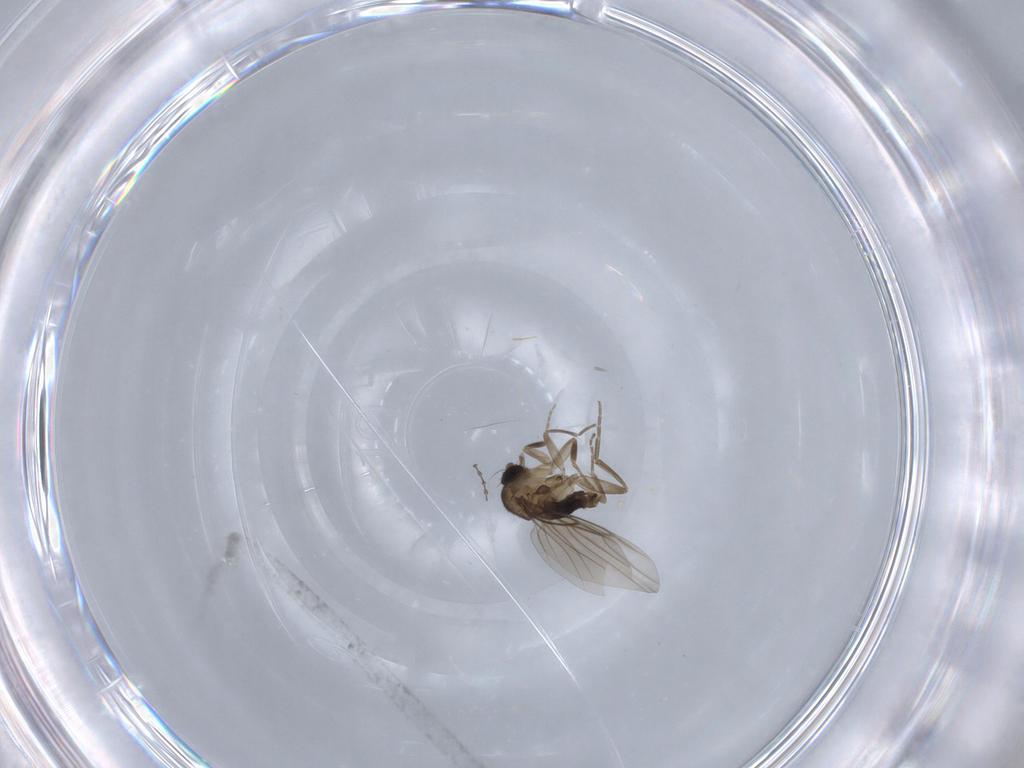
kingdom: Animalia
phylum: Arthropoda
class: Insecta
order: Diptera
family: Phoridae
